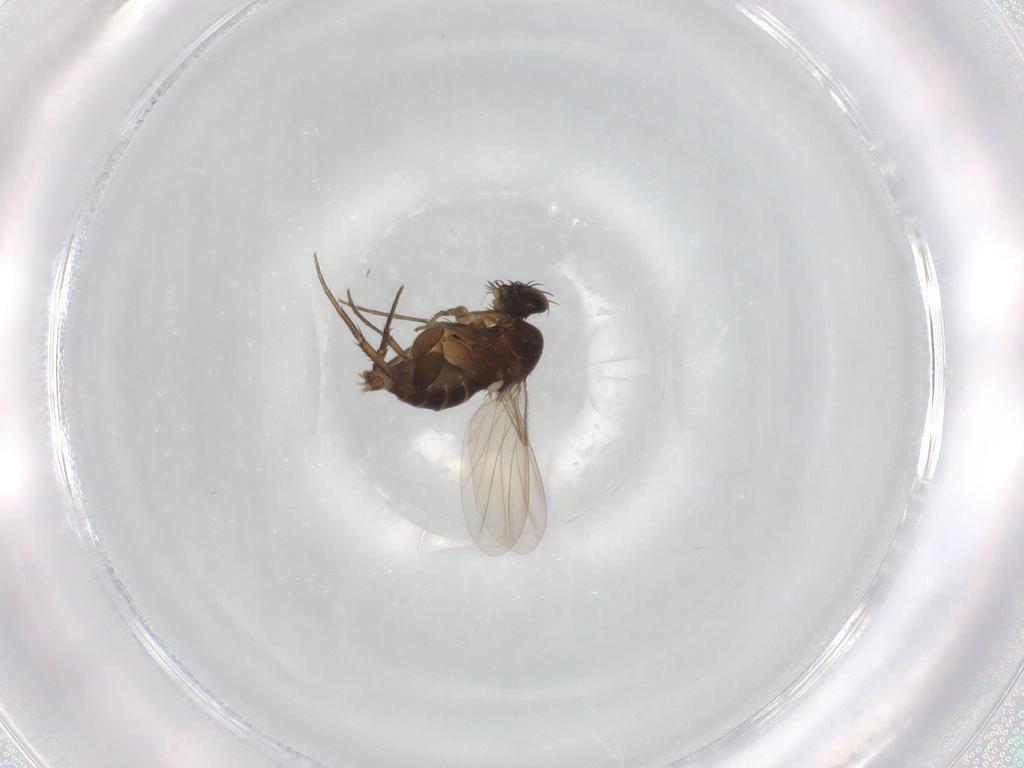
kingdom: Animalia
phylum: Arthropoda
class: Insecta
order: Diptera
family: Phoridae
